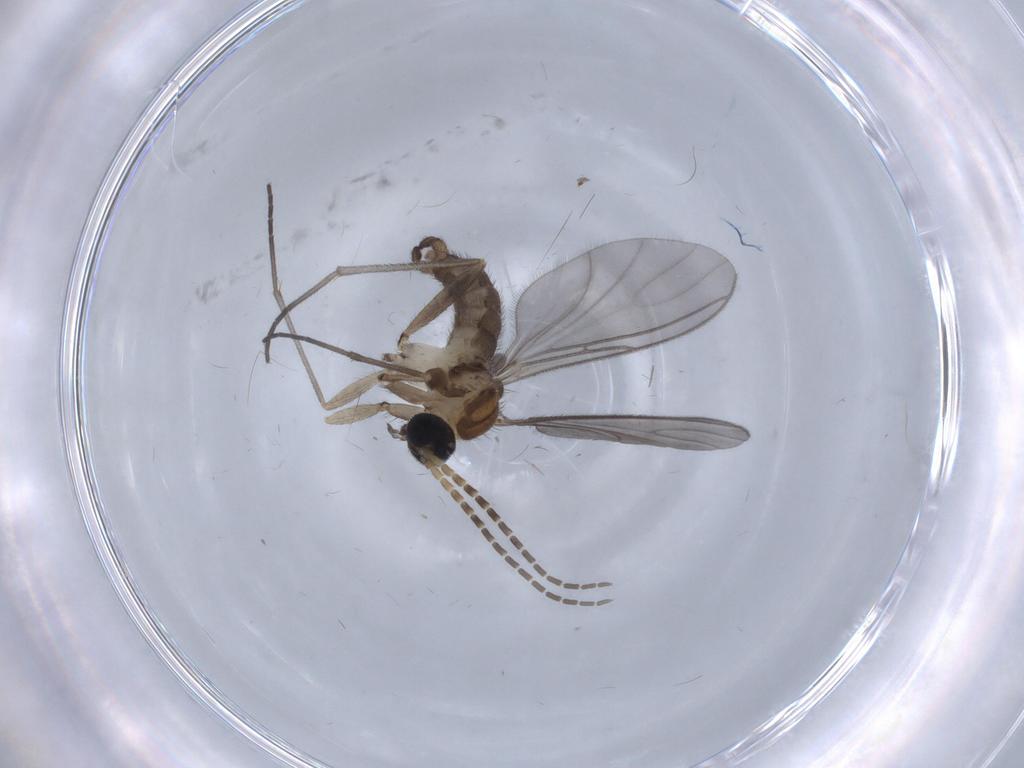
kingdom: Animalia
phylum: Arthropoda
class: Insecta
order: Diptera
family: Sciaridae
